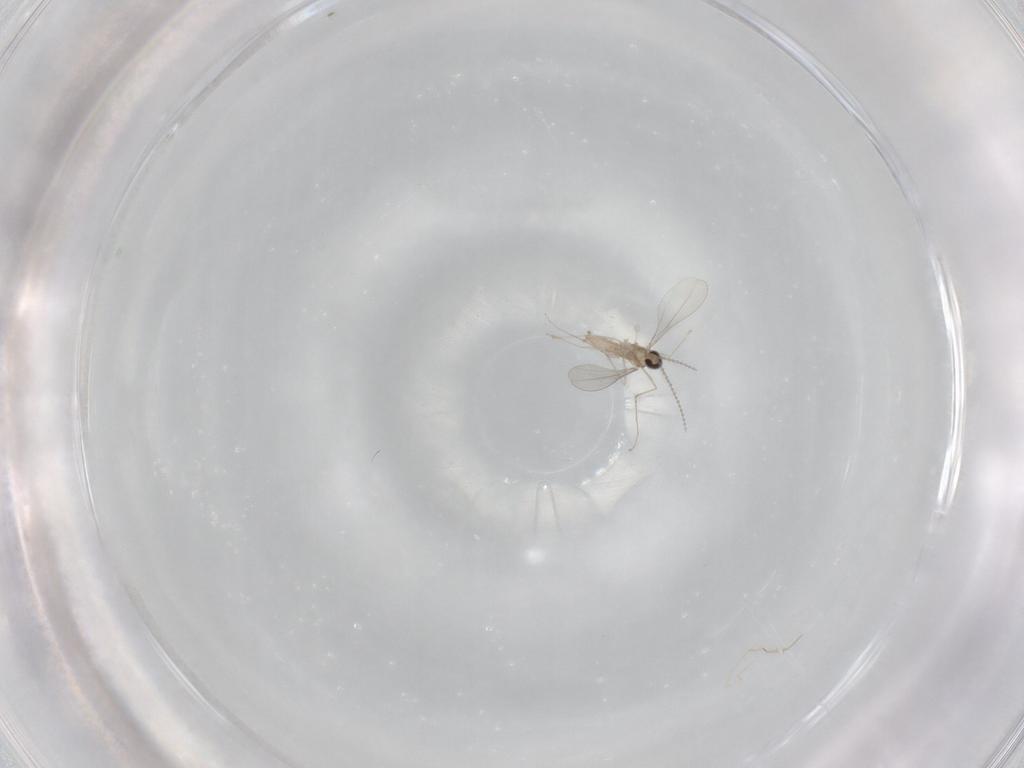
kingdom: Animalia
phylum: Arthropoda
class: Insecta
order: Diptera
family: Cecidomyiidae
